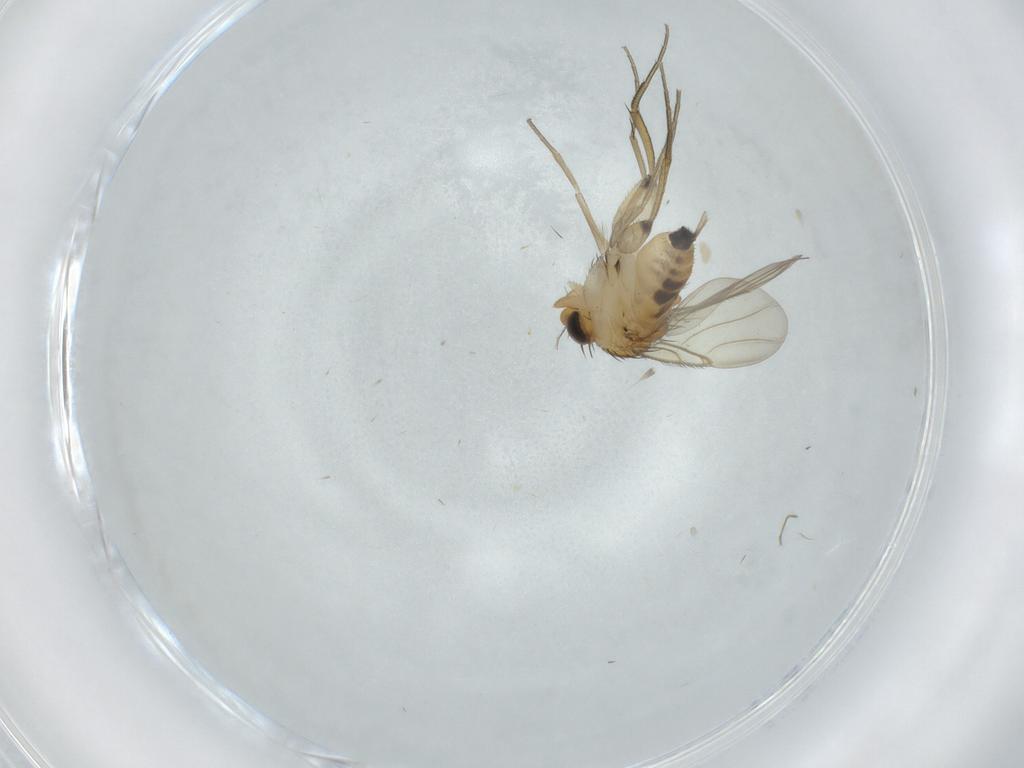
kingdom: Animalia
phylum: Arthropoda
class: Insecta
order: Diptera
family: Phoridae
